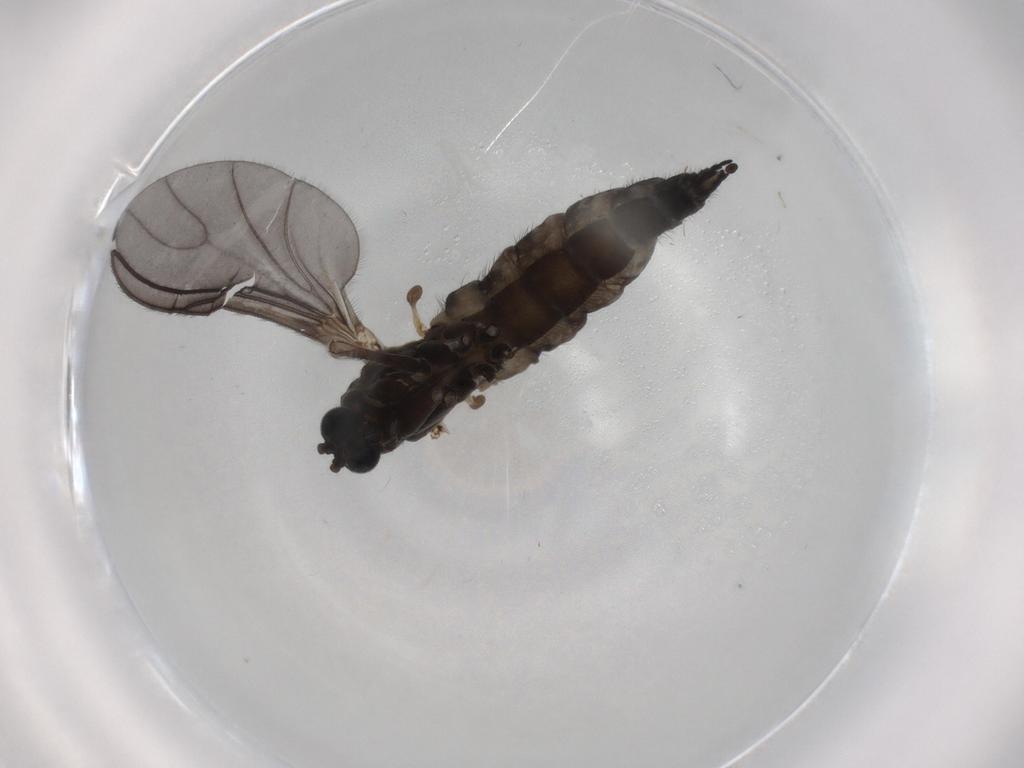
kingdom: Animalia
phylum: Arthropoda
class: Insecta
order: Diptera
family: Sciaridae
